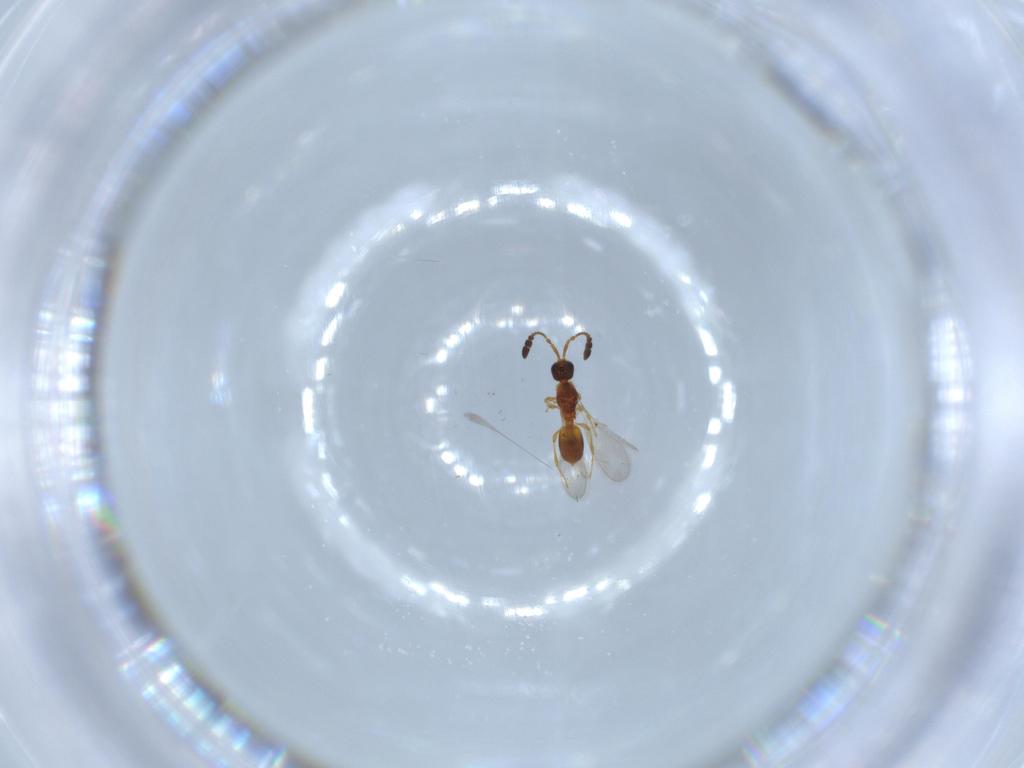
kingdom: Animalia
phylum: Arthropoda
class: Insecta
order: Hymenoptera
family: Diapriidae
